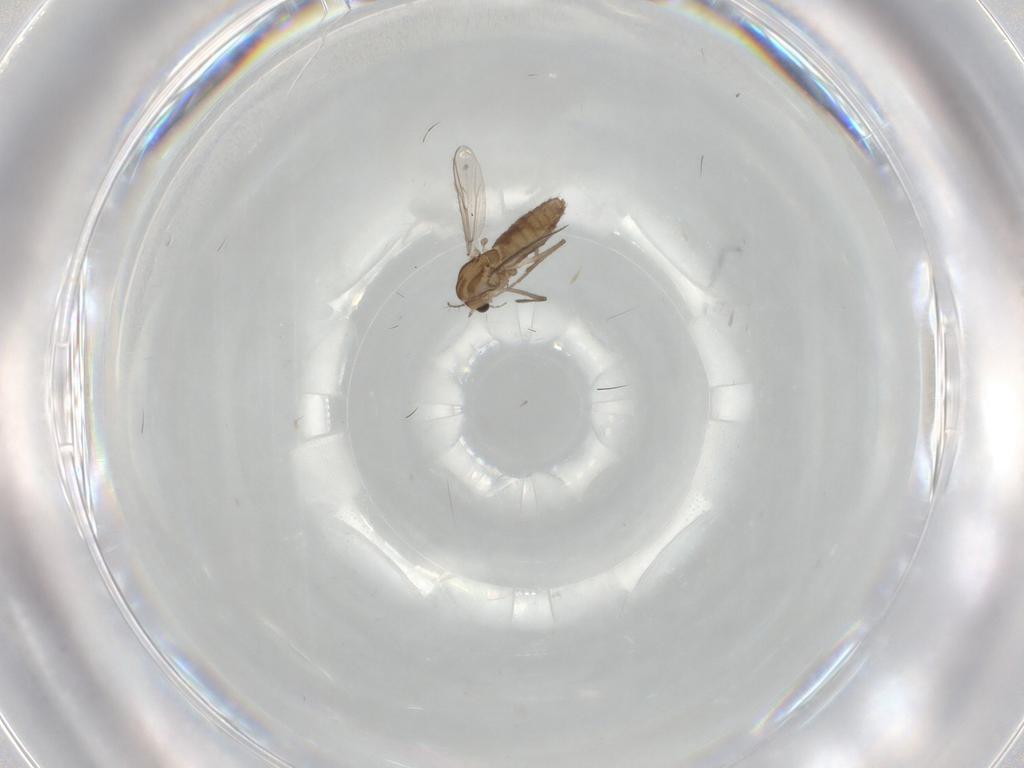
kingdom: Animalia
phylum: Arthropoda
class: Insecta
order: Diptera
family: Chironomidae
